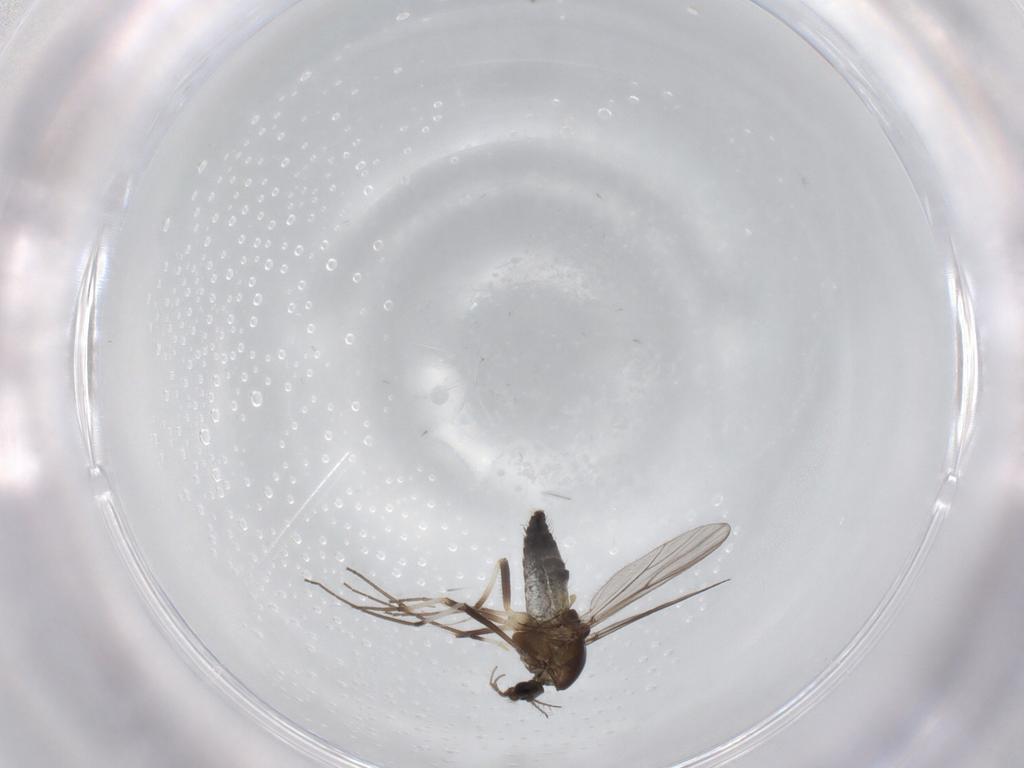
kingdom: Animalia
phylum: Arthropoda
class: Insecta
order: Diptera
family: Chironomidae
